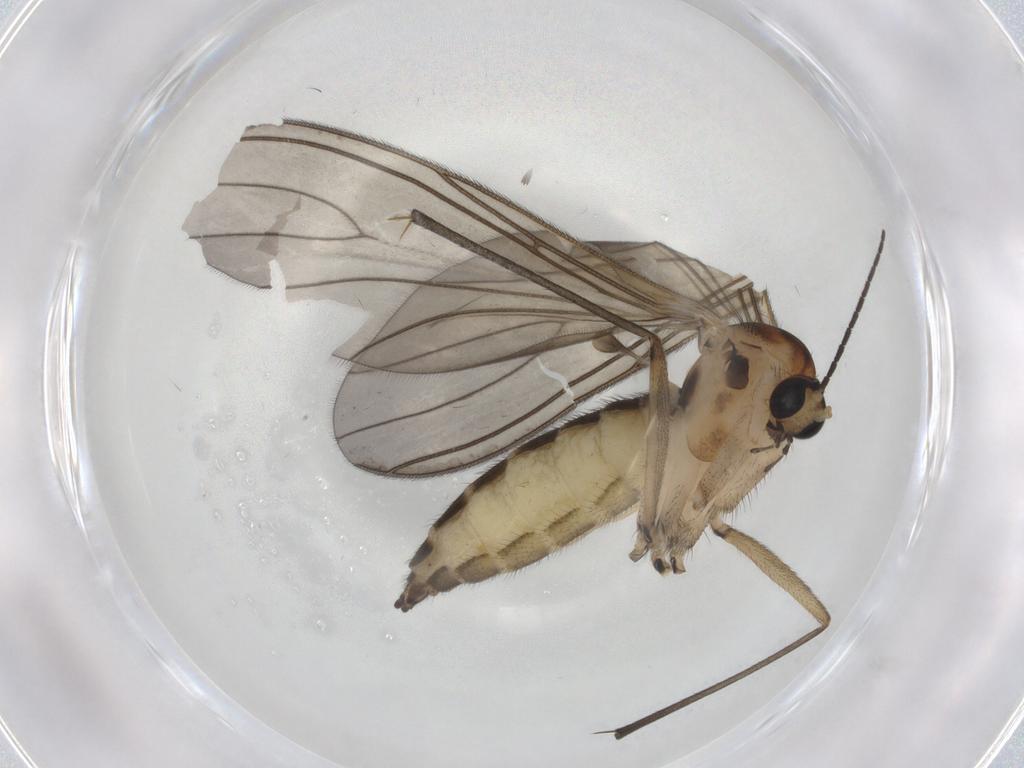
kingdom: Animalia
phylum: Arthropoda
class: Insecta
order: Diptera
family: Sciaridae
